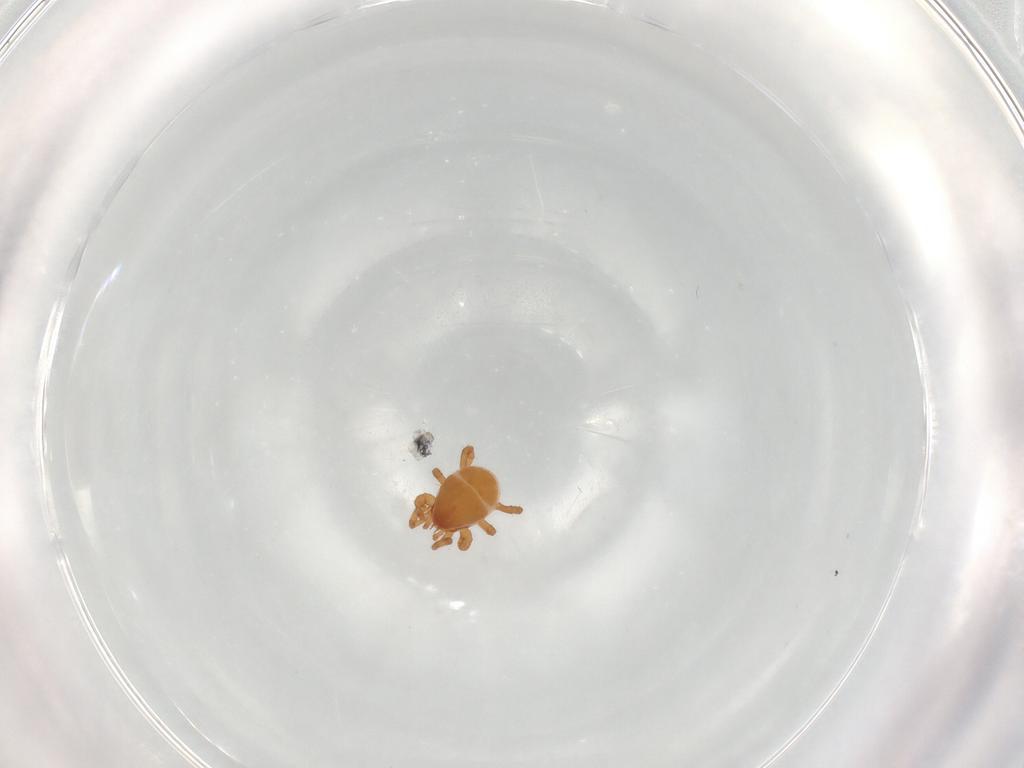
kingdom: Animalia
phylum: Arthropoda
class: Arachnida
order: Mesostigmata
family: Parasitidae
